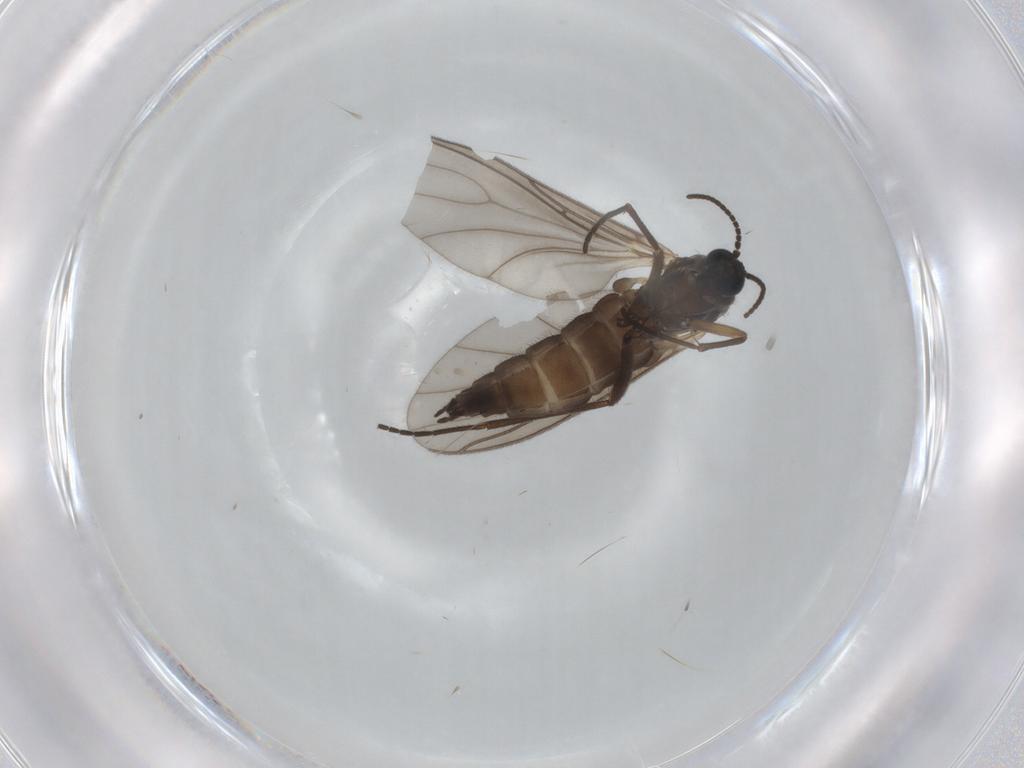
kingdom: Animalia
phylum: Arthropoda
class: Insecta
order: Diptera
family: Sciaridae
